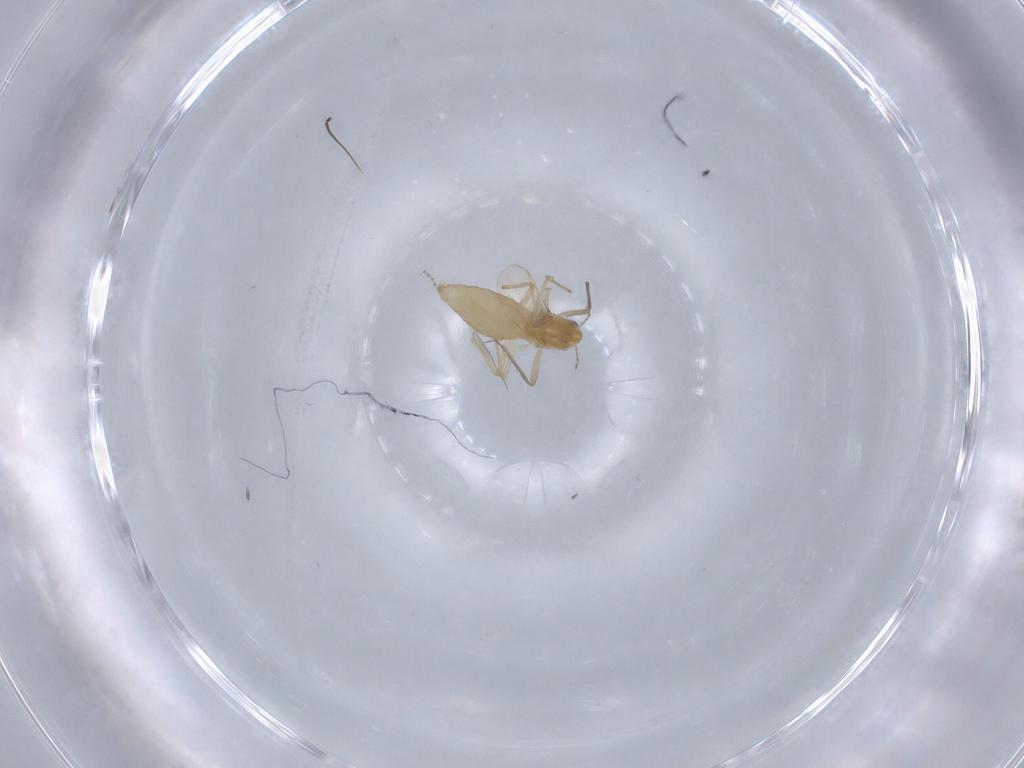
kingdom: Animalia
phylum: Arthropoda
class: Insecta
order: Diptera
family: Chironomidae
